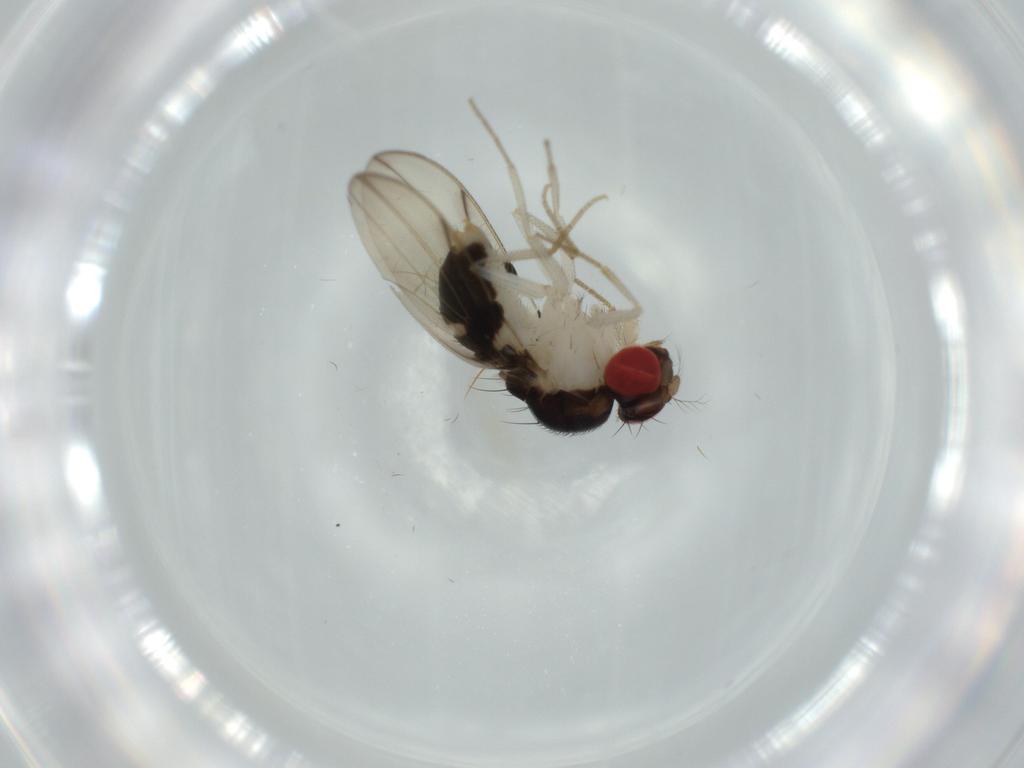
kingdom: Animalia
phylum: Arthropoda
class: Insecta
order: Diptera
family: Drosophilidae
